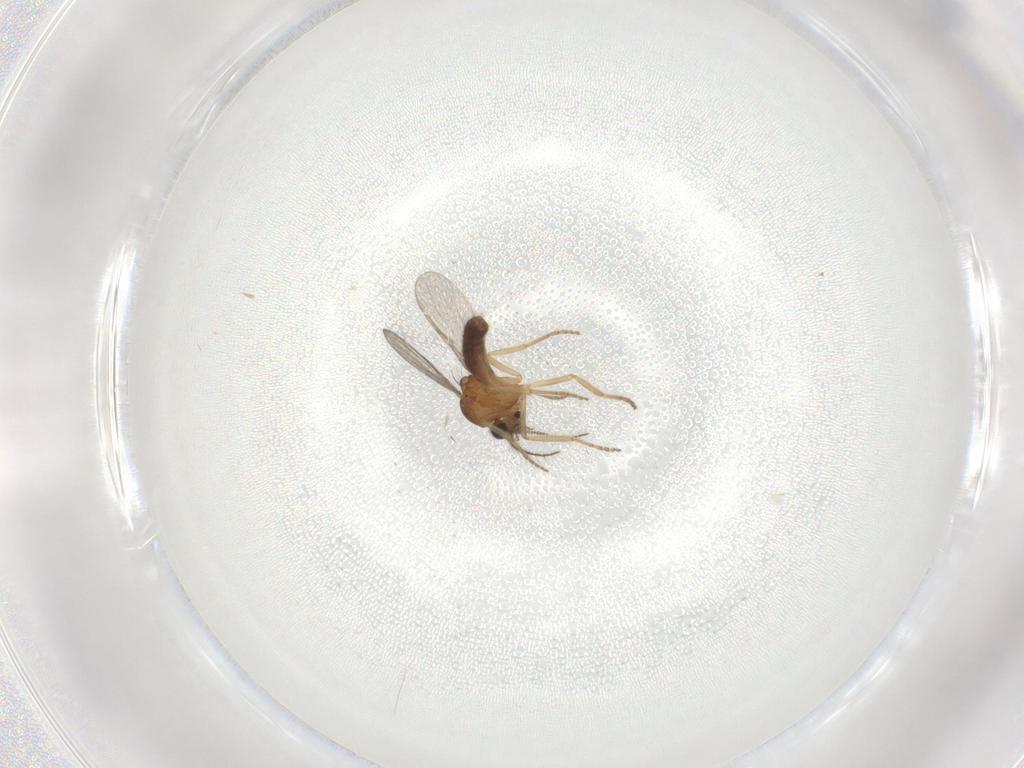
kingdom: Animalia
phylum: Arthropoda
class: Insecta
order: Diptera
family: Ceratopogonidae
